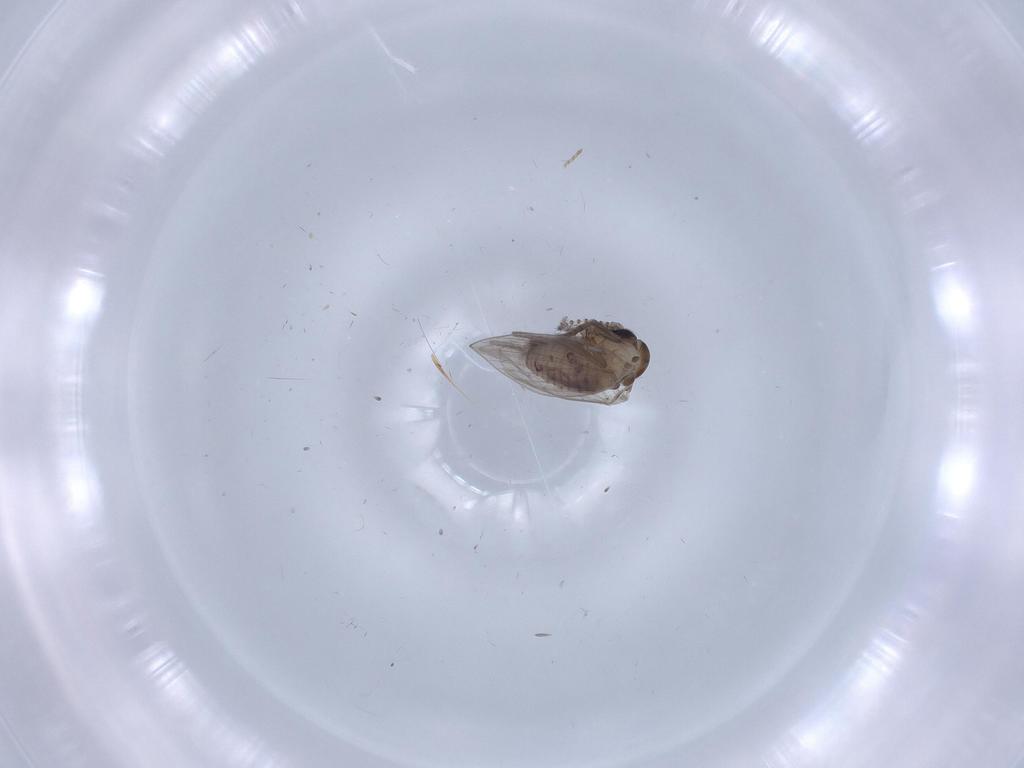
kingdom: Animalia
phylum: Arthropoda
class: Insecta
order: Diptera
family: Psychodidae
